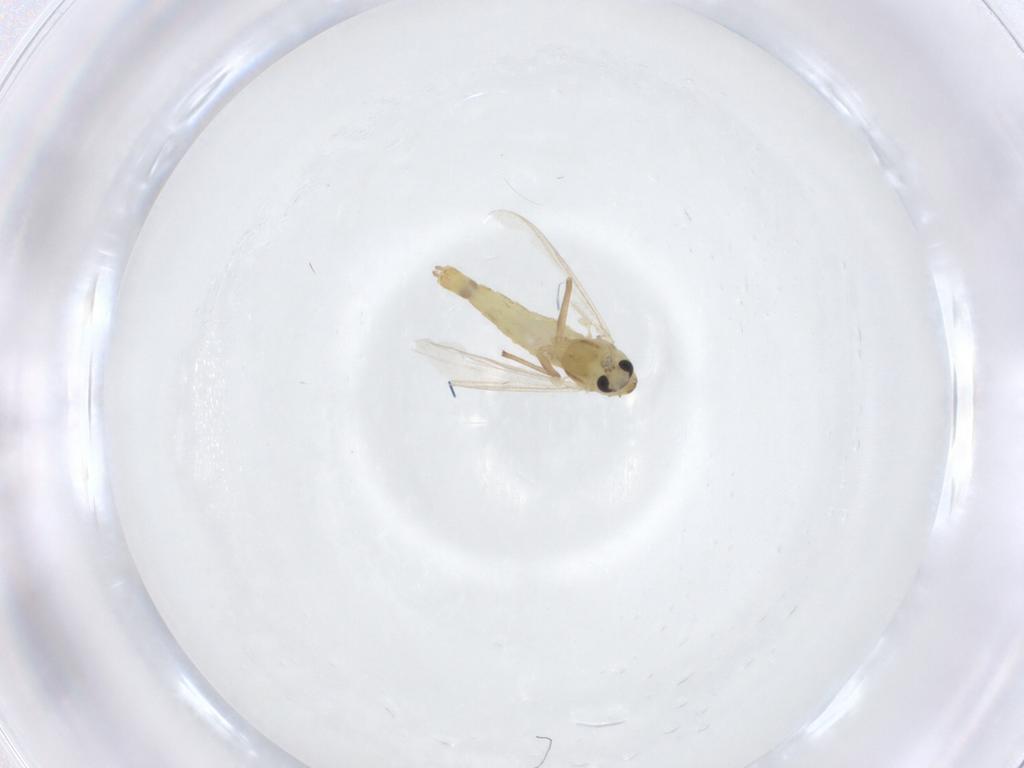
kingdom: Animalia
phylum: Arthropoda
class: Insecta
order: Diptera
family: Chironomidae
